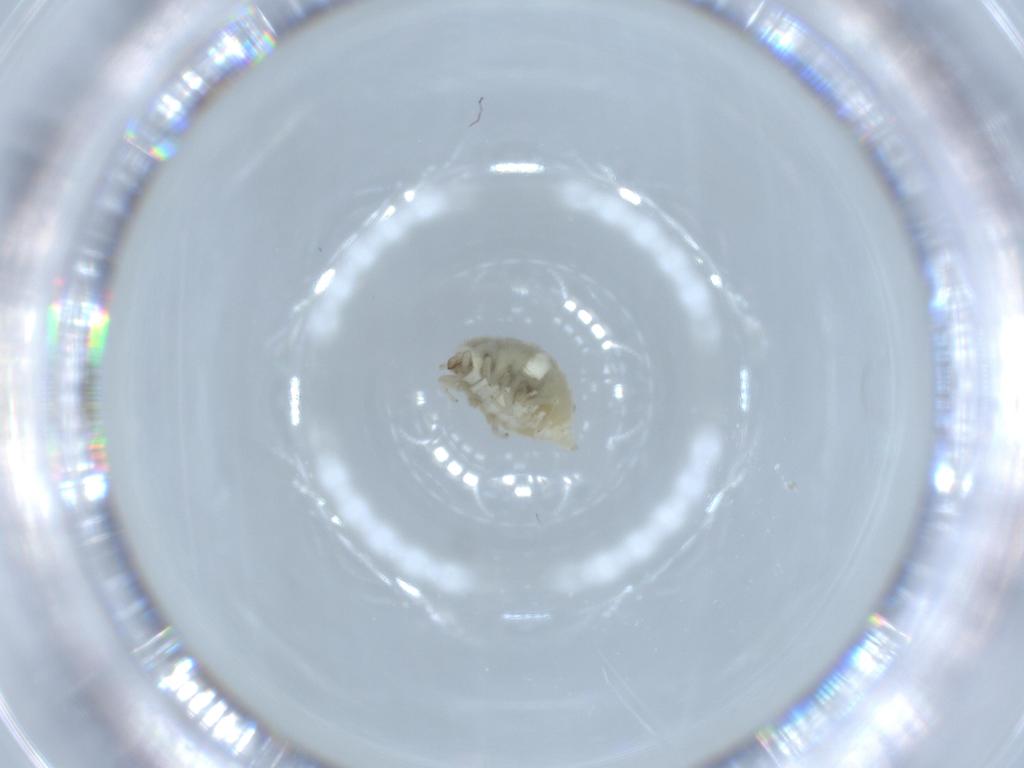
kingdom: Animalia
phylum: Arthropoda
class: Insecta
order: Neuroptera
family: Coniopterygidae
